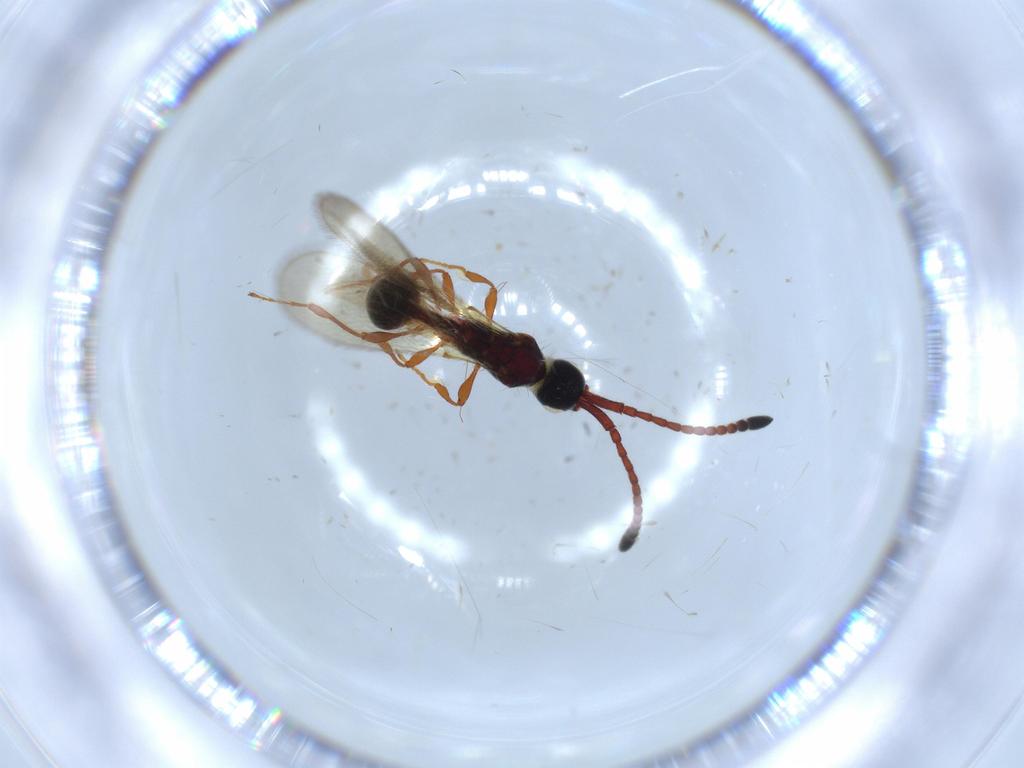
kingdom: Animalia
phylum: Arthropoda
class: Insecta
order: Hymenoptera
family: Diapriidae
